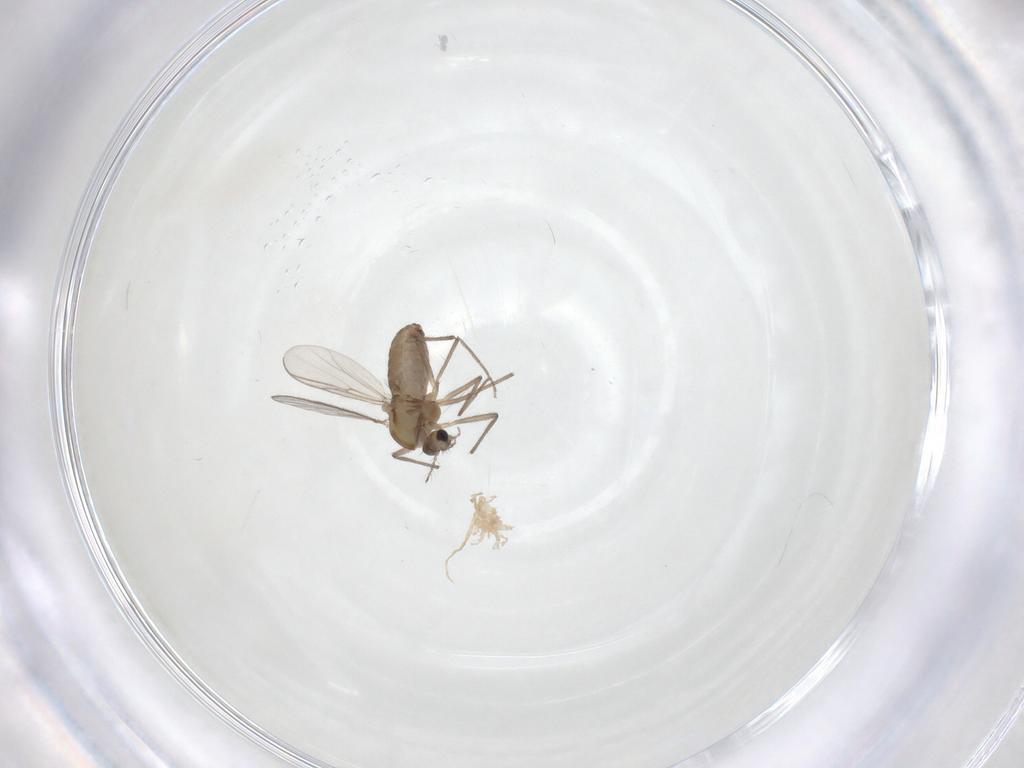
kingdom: Animalia
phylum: Arthropoda
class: Insecta
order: Diptera
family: Chironomidae
